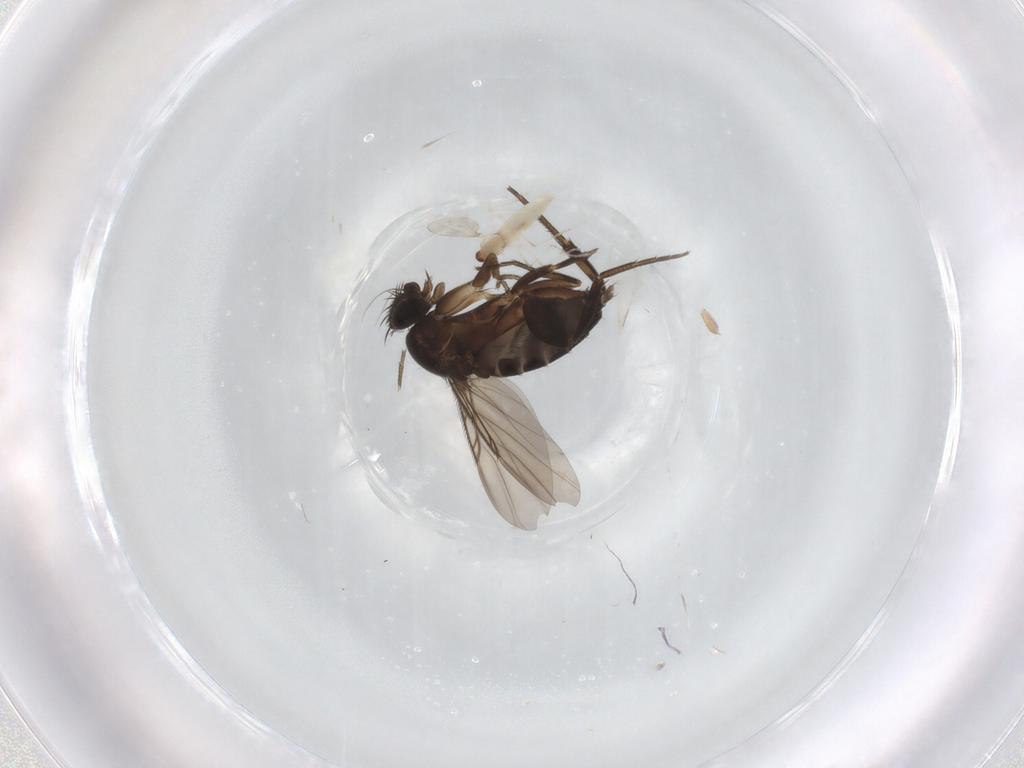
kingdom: Animalia
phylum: Arthropoda
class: Insecta
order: Diptera
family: Phoridae
